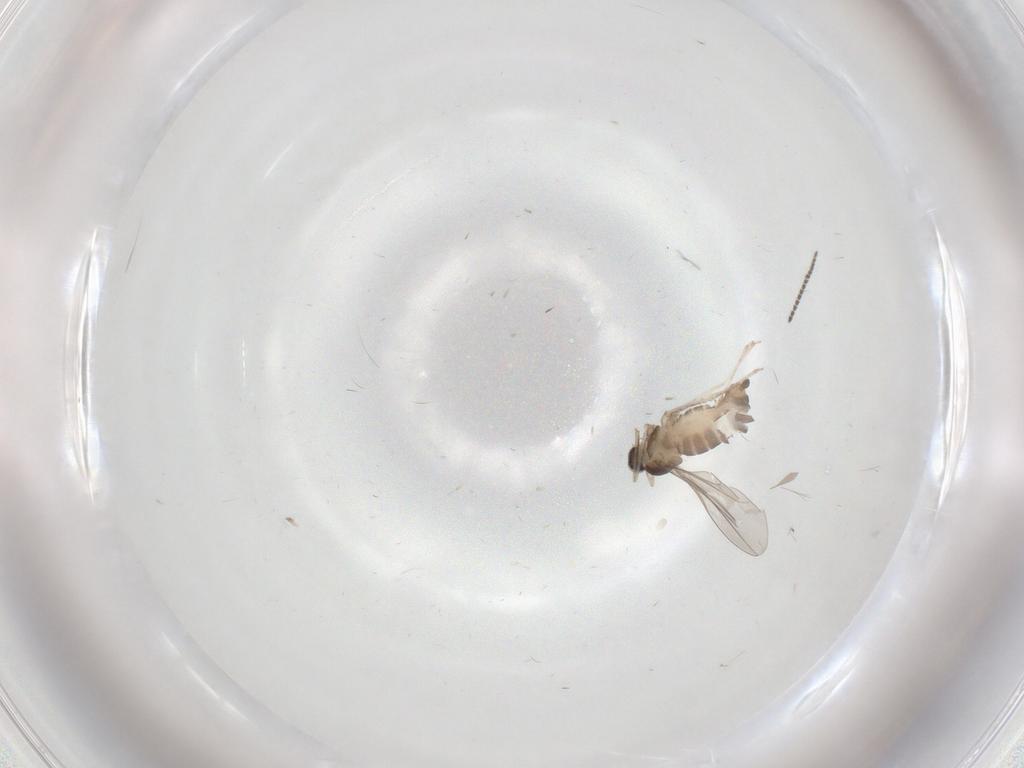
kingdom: Animalia
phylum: Arthropoda
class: Insecta
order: Diptera
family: Cecidomyiidae
